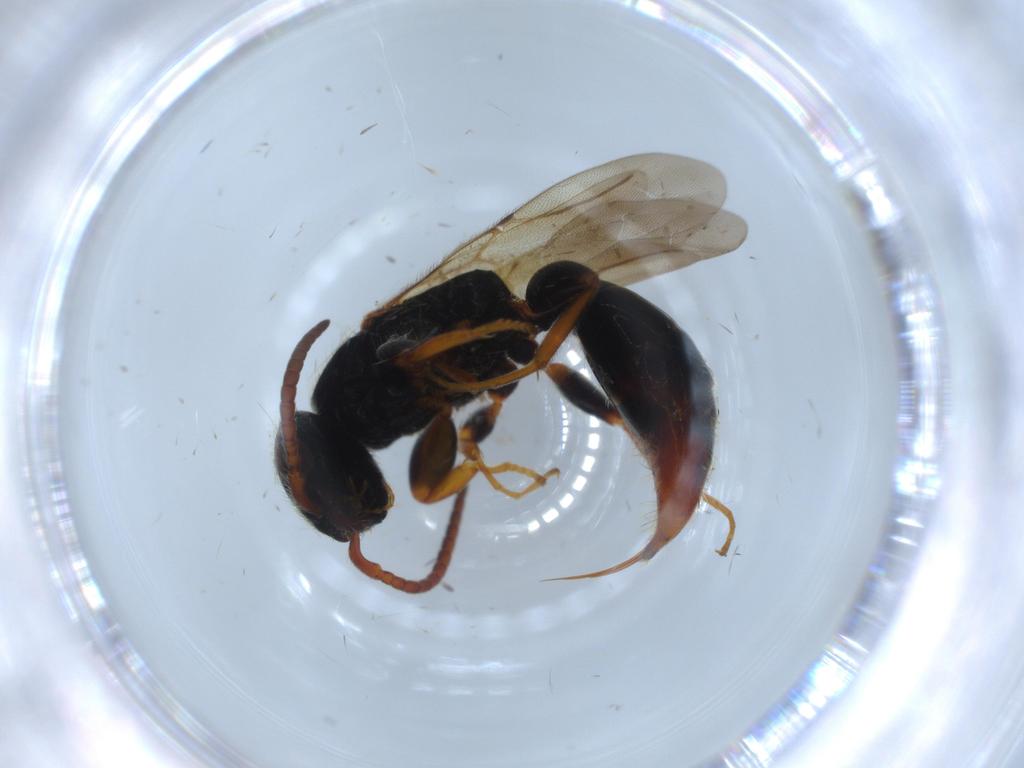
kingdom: Animalia
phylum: Arthropoda
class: Insecta
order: Hymenoptera
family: Bethylidae
